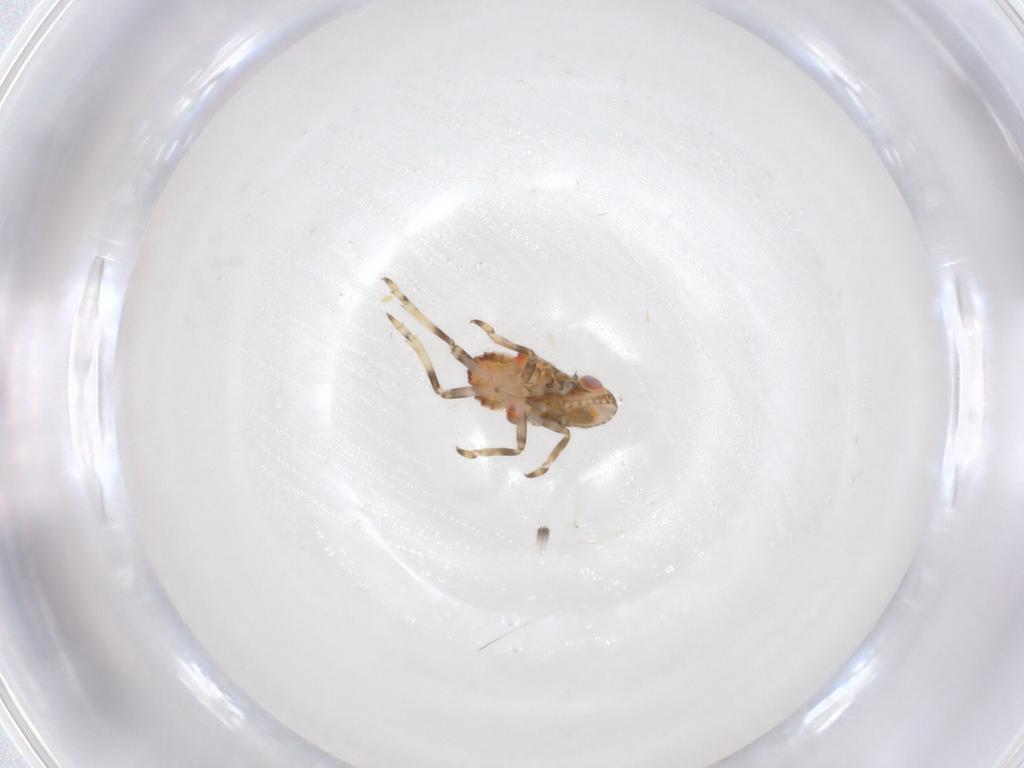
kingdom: Animalia
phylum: Arthropoda
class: Insecta
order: Hemiptera
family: Tropiduchidae
